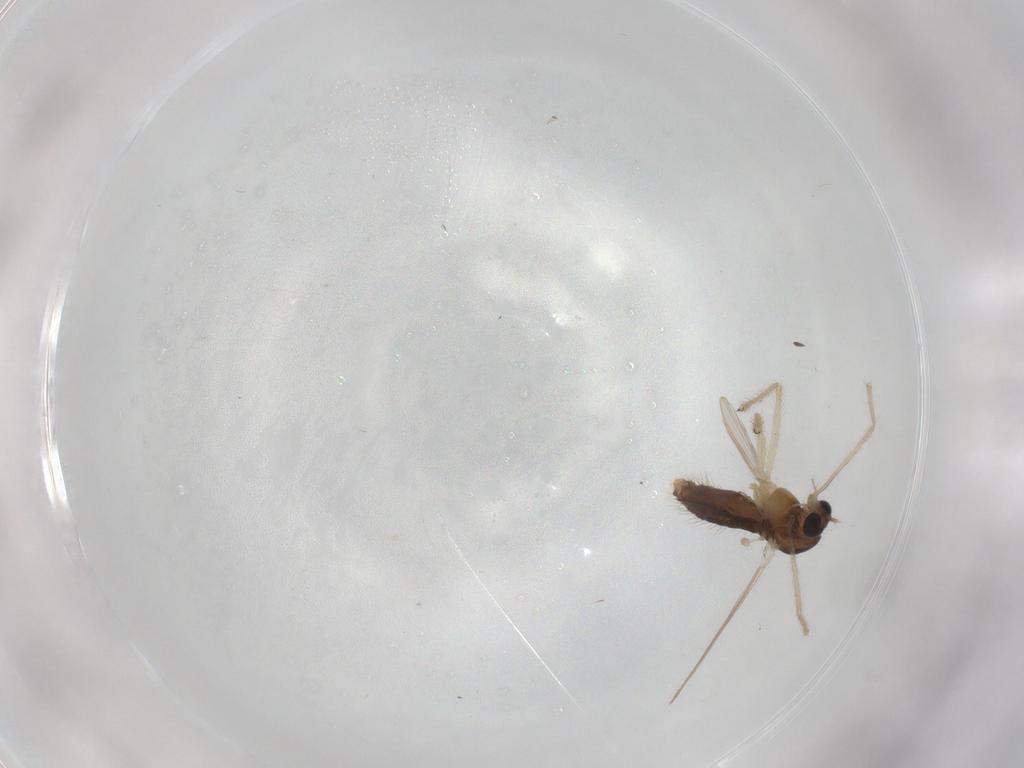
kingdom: Animalia
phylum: Arthropoda
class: Insecta
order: Diptera
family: Chironomidae
